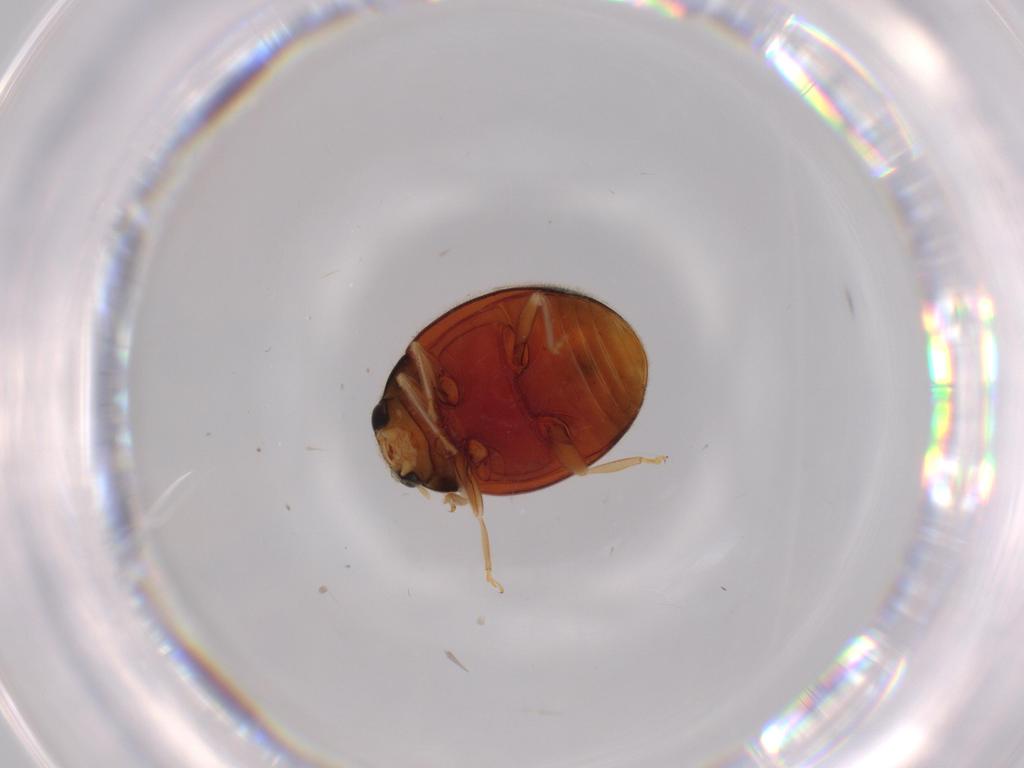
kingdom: Animalia
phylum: Arthropoda
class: Insecta
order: Coleoptera
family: Coccinellidae
